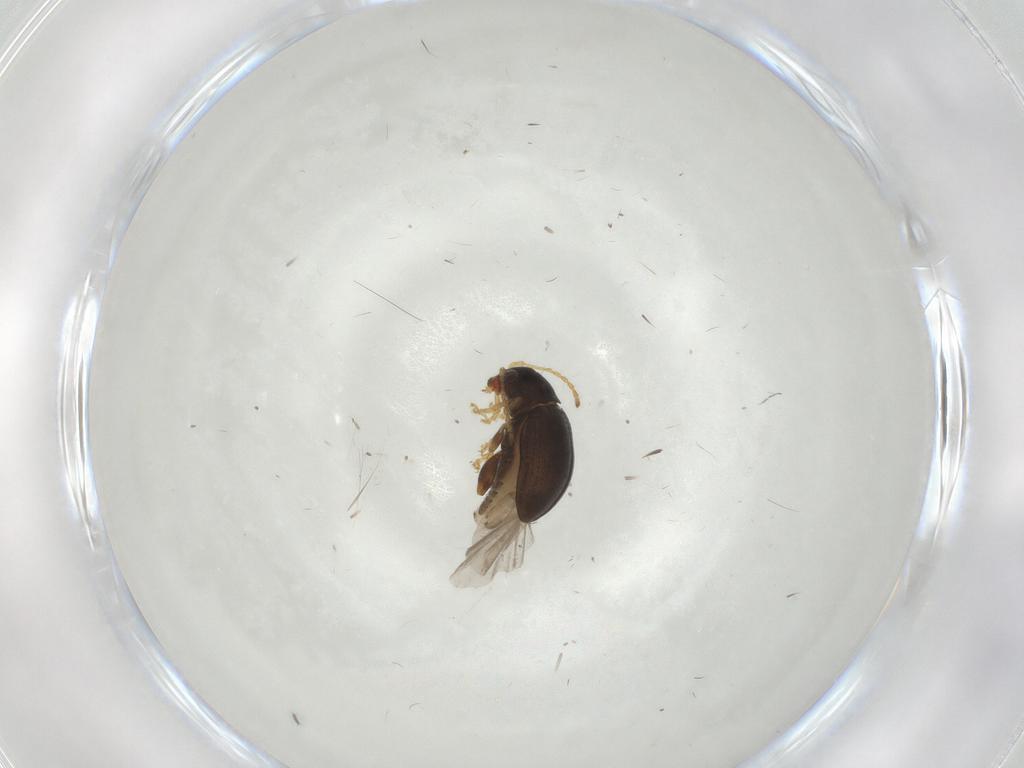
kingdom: Animalia
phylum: Arthropoda
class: Insecta
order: Coleoptera
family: Chrysomelidae
